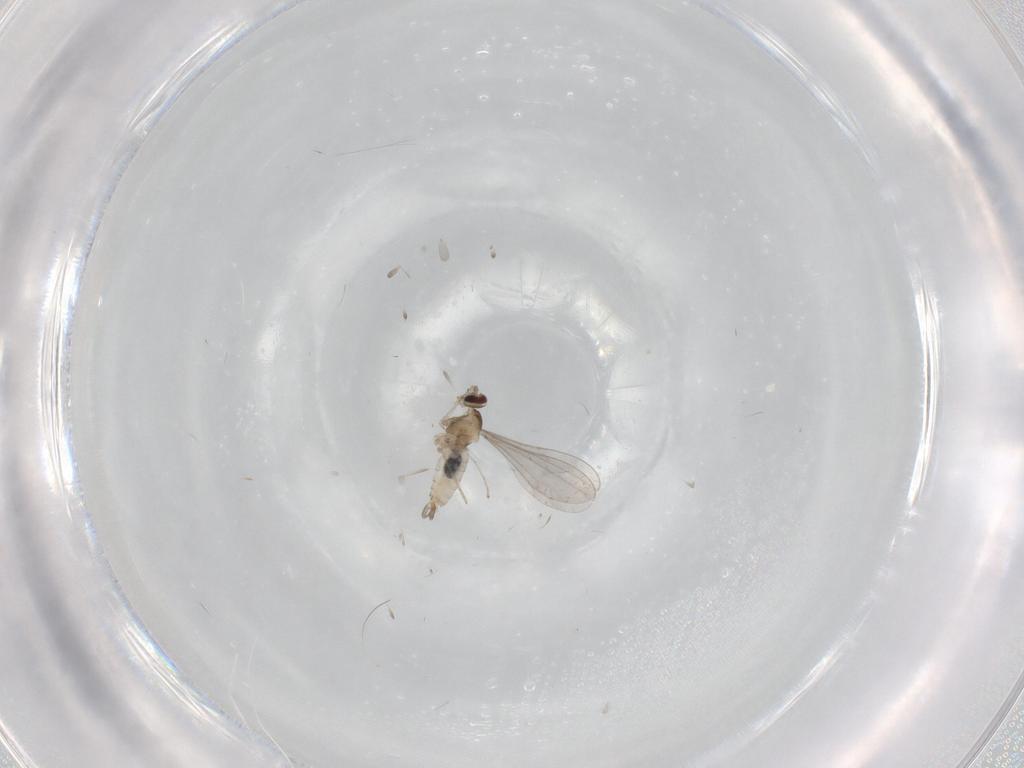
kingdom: Animalia
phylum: Arthropoda
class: Insecta
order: Diptera
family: Cecidomyiidae
